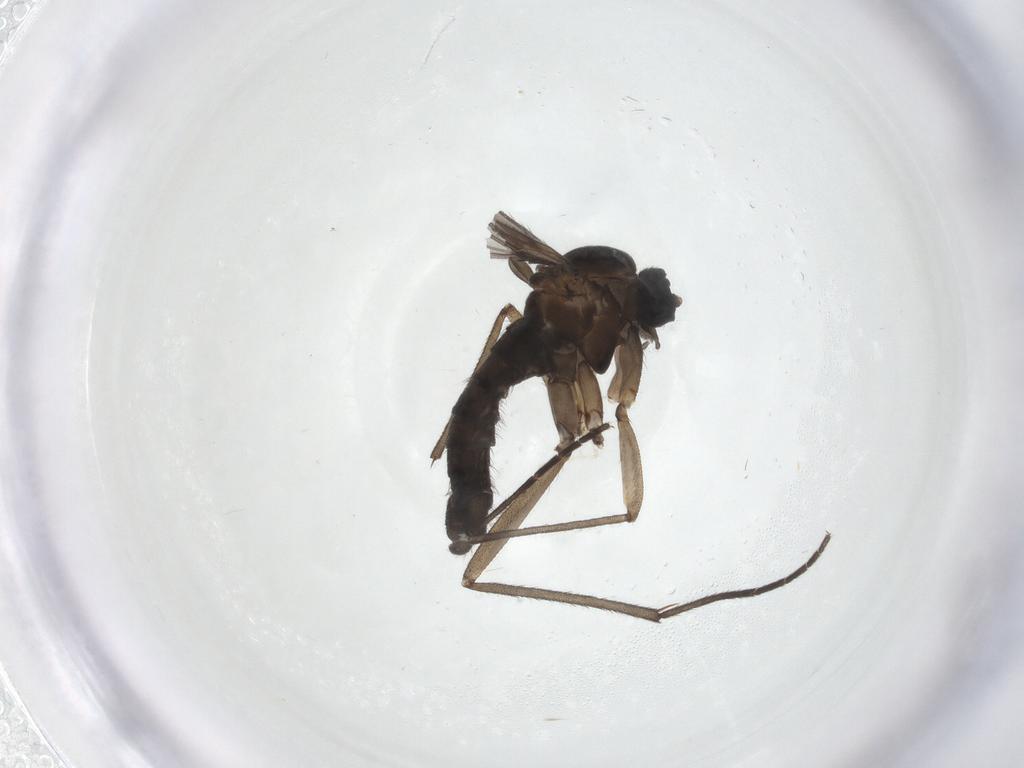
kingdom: Animalia
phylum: Arthropoda
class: Insecta
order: Diptera
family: Sciaridae
